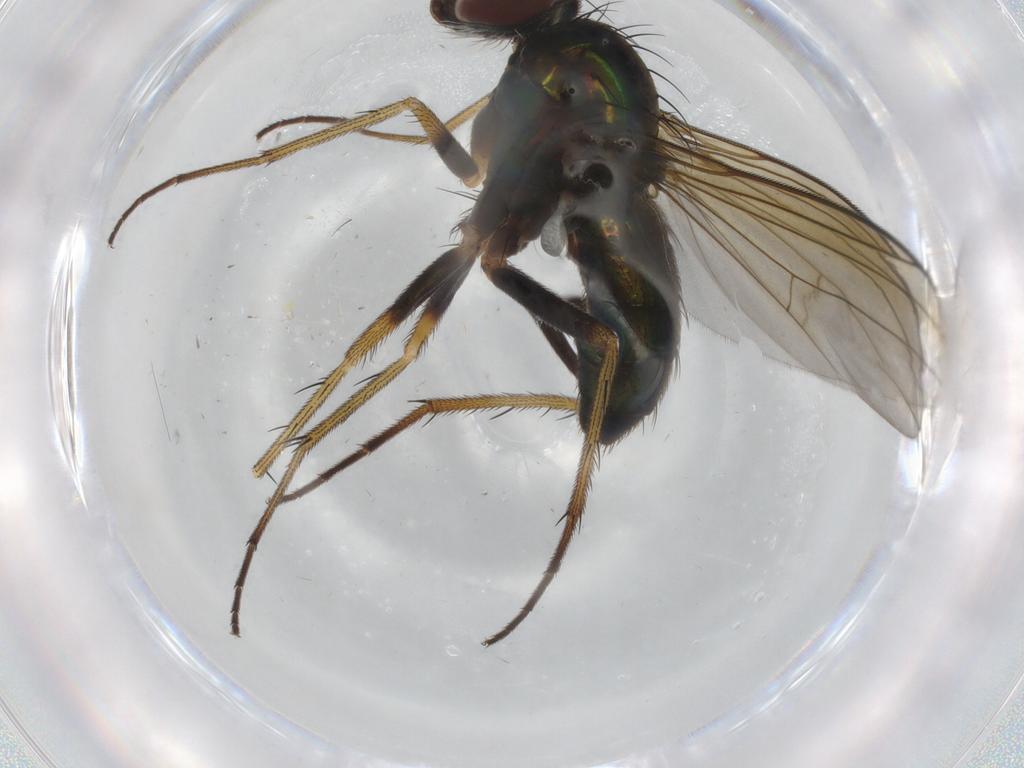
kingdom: Animalia
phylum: Arthropoda
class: Insecta
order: Diptera
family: Dolichopodidae
